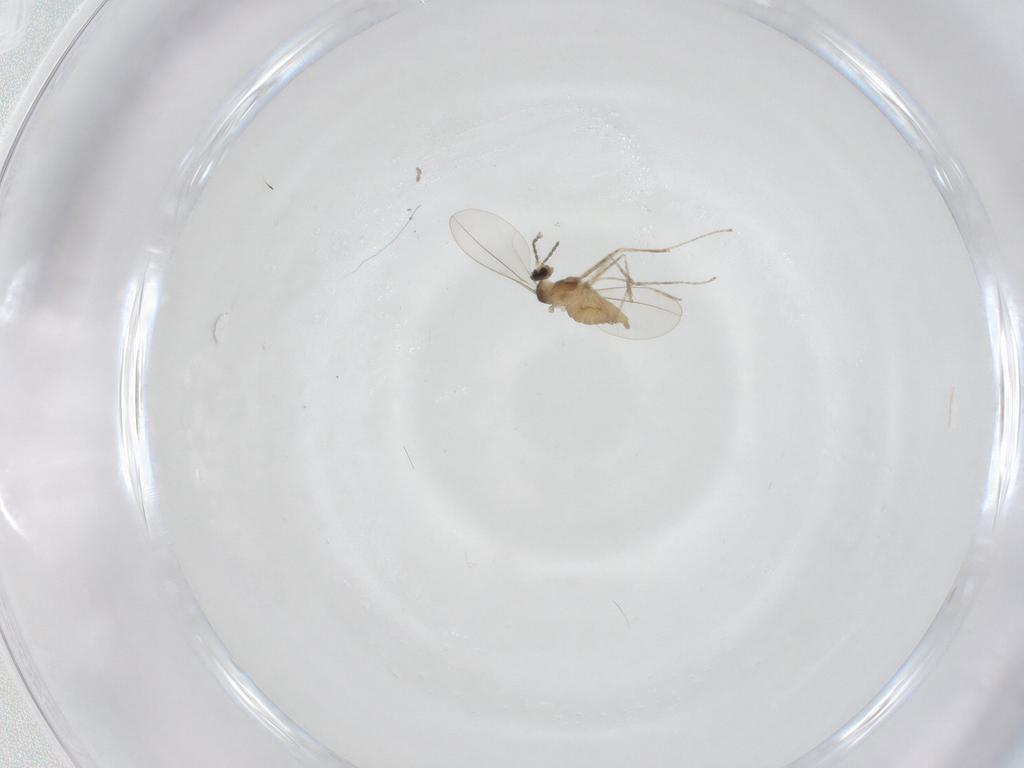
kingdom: Animalia
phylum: Arthropoda
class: Insecta
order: Diptera
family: Cecidomyiidae
